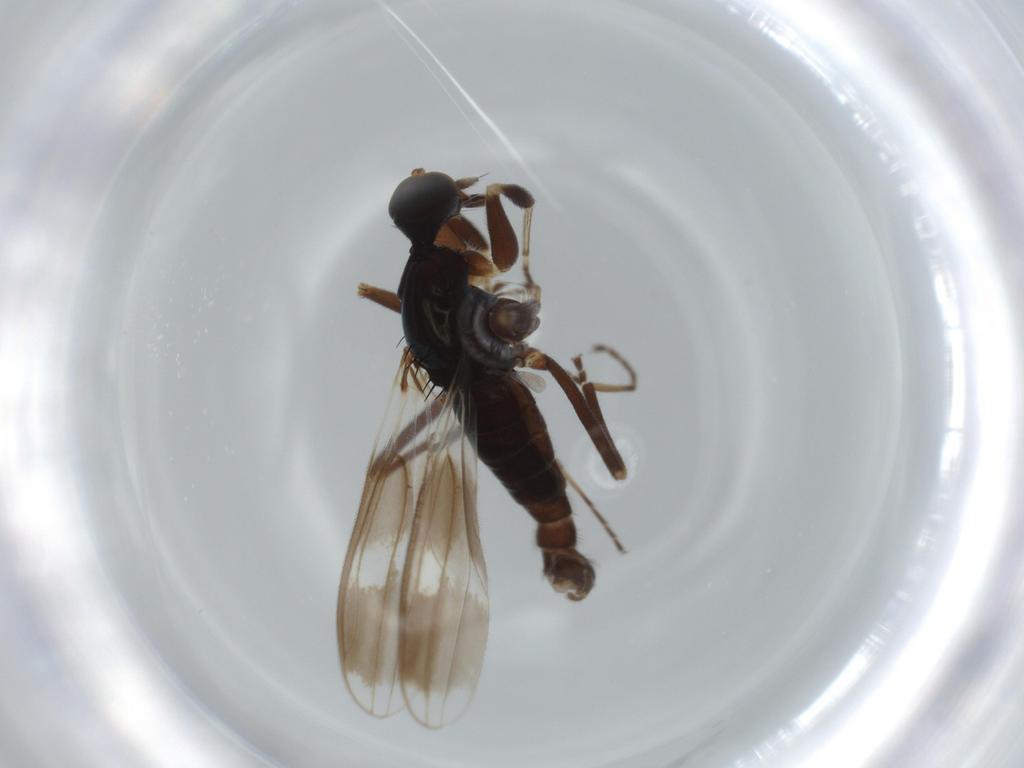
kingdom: Animalia
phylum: Arthropoda
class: Insecta
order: Diptera
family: Hybotidae
